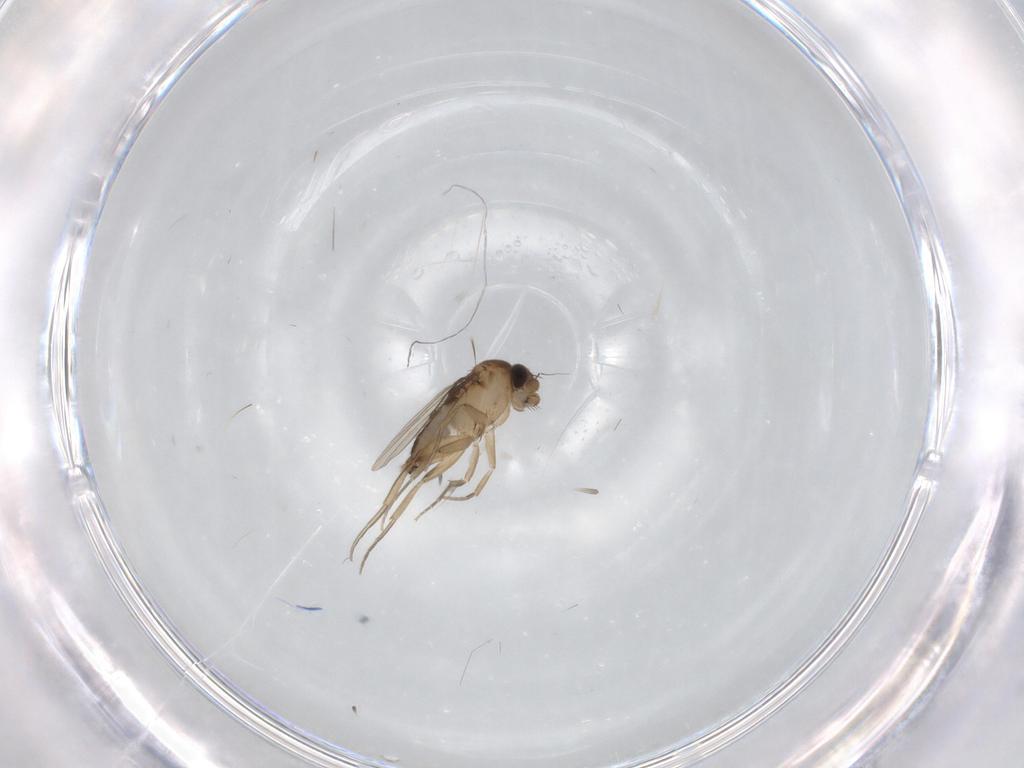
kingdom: Animalia
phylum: Arthropoda
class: Insecta
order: Diptera
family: Phoridae
